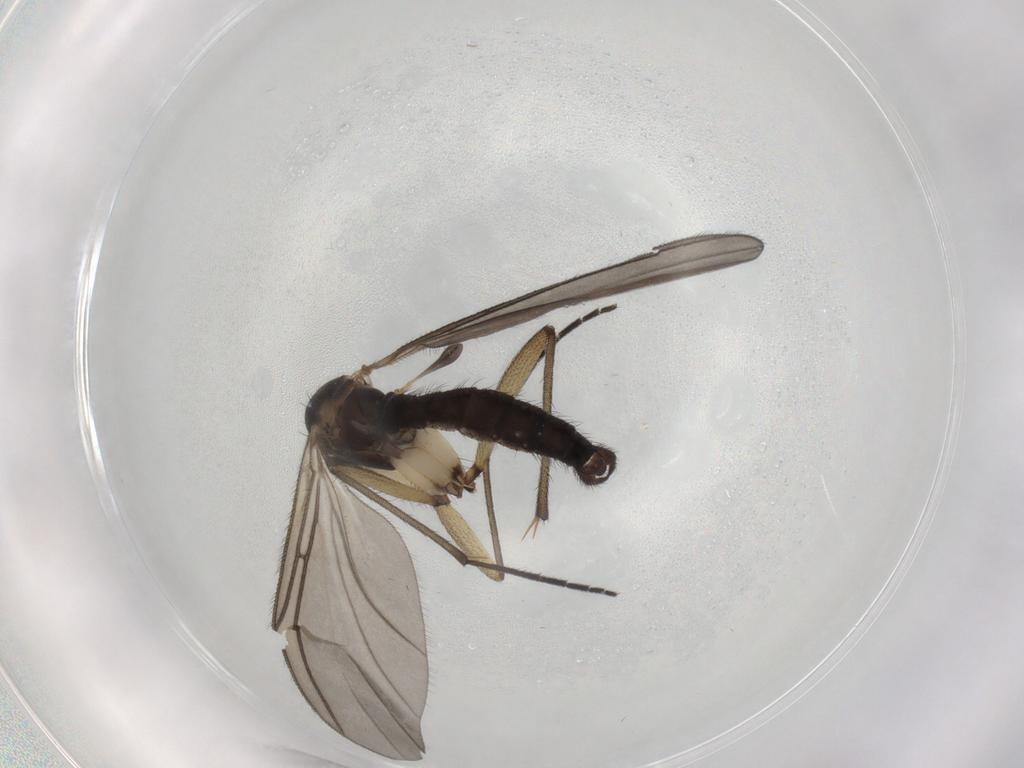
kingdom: Animalia
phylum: Arthropoda
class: Insecta
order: Diptera
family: Sciaridae
